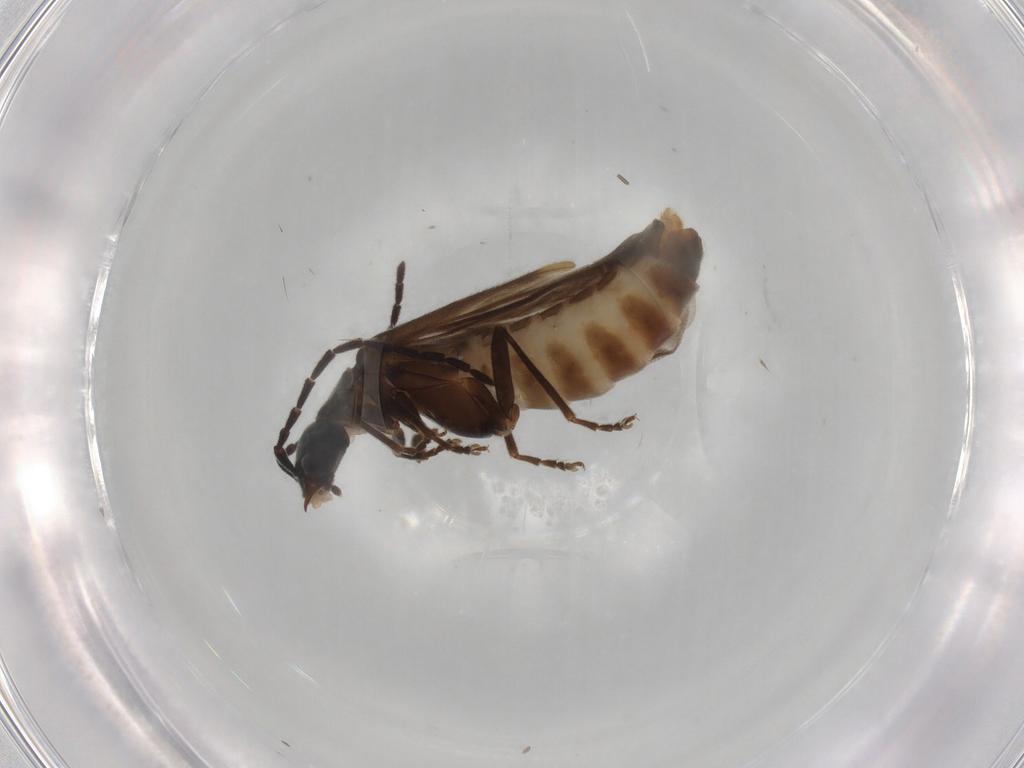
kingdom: Animalia
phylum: Arthropoda
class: Insecta
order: Coleoptera
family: Cantharidae
